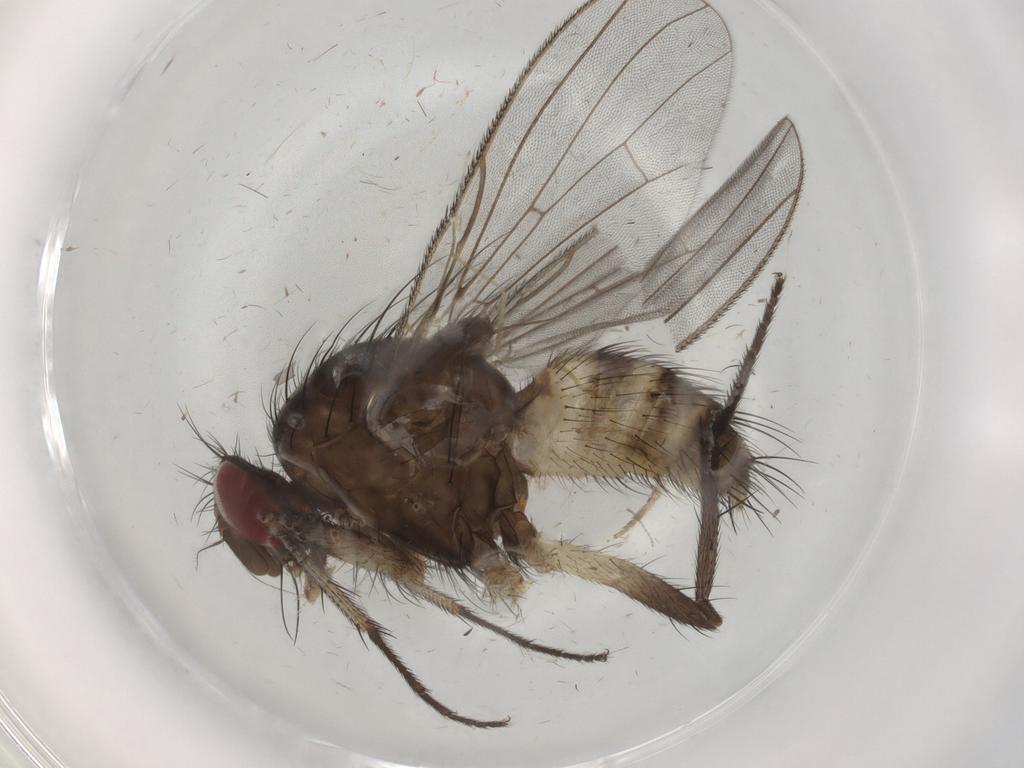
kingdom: Animalia
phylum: Arthropoda
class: Insecta
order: Diptera
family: Anthomyiidae
